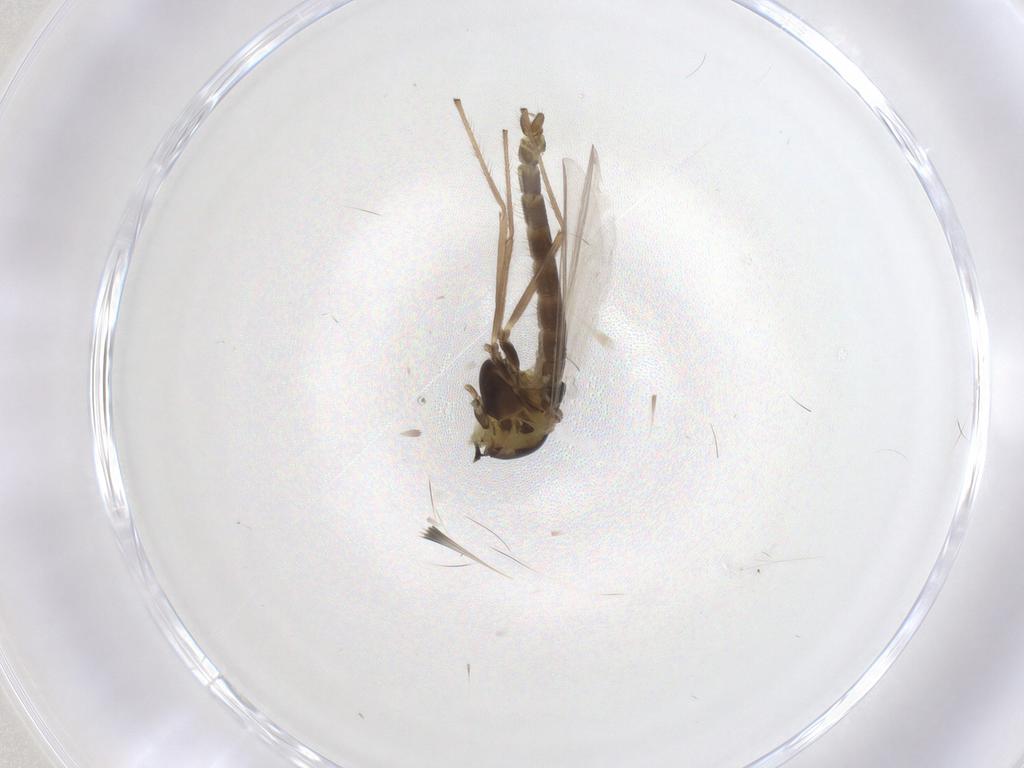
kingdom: Animalia
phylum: Arthropoda
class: Insecta
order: Diptera
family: Chironomidae
